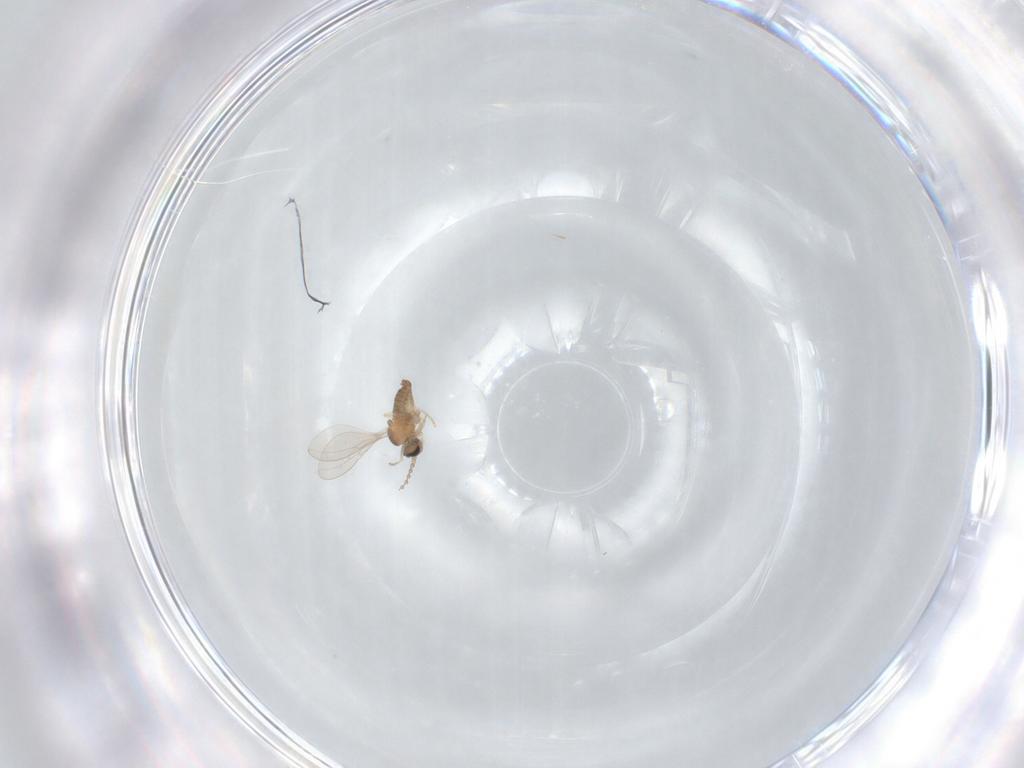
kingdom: Animalia
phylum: Arthropoda
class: Insecta
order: Diptera
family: Cecidomyiidae
